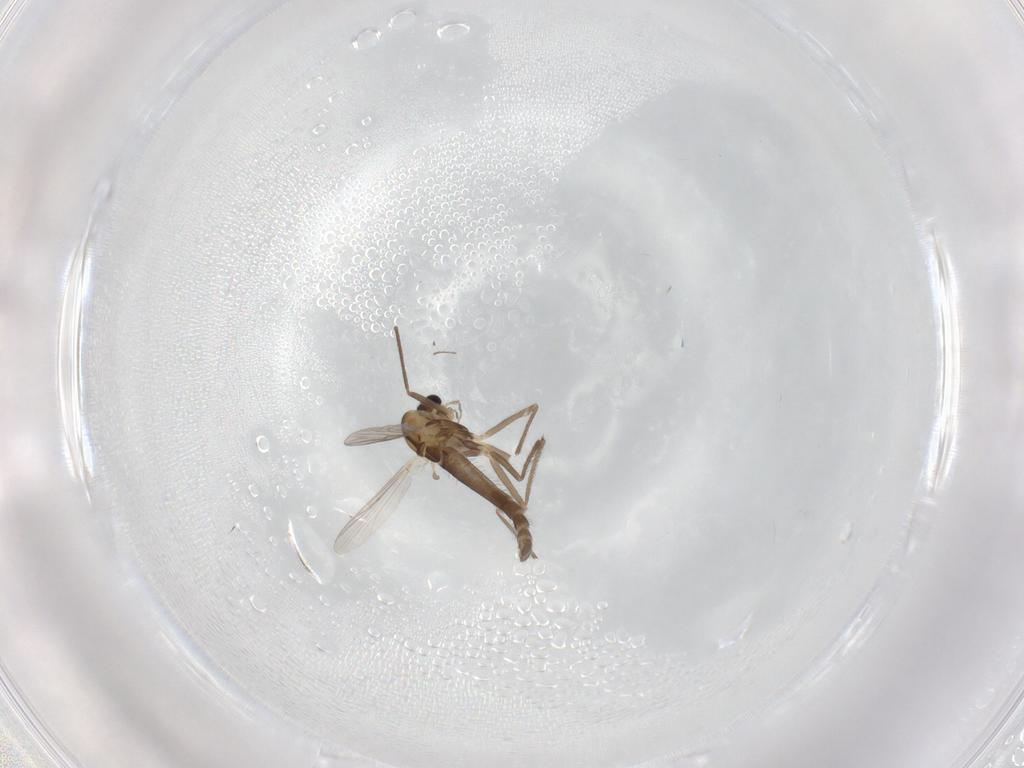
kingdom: Animalia
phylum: Arthropoda
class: Insecta
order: Diptera
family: Chironomidae
